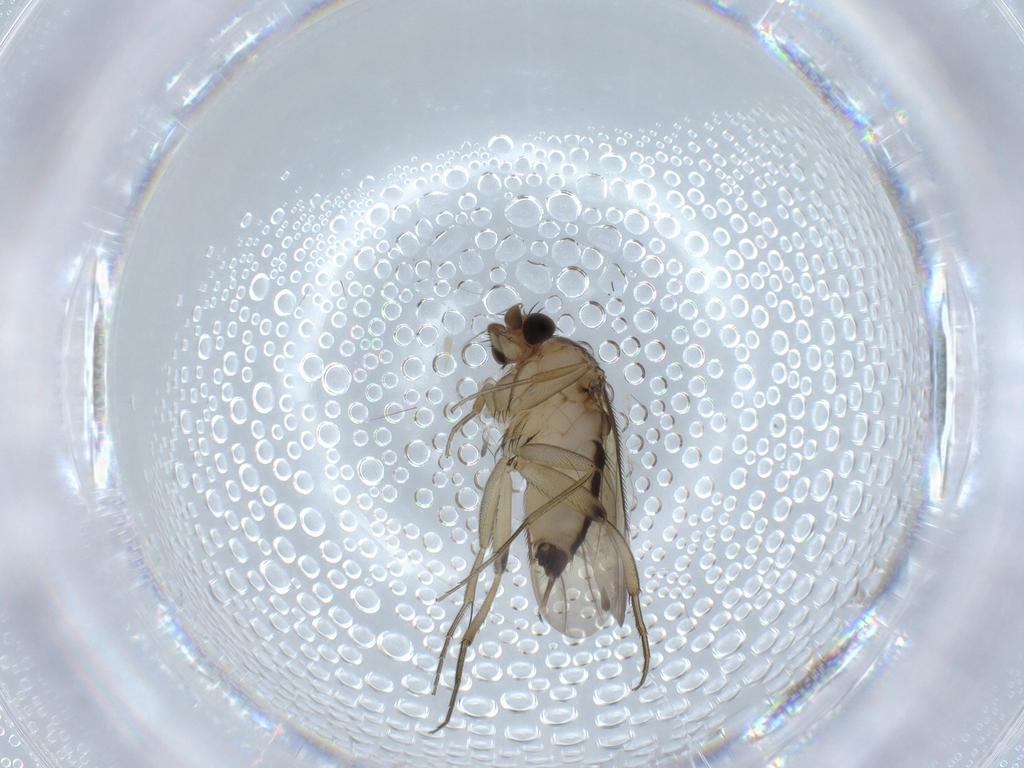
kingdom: Animalia
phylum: Arthropoda
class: Insecta
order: Diptera
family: Phoridae
